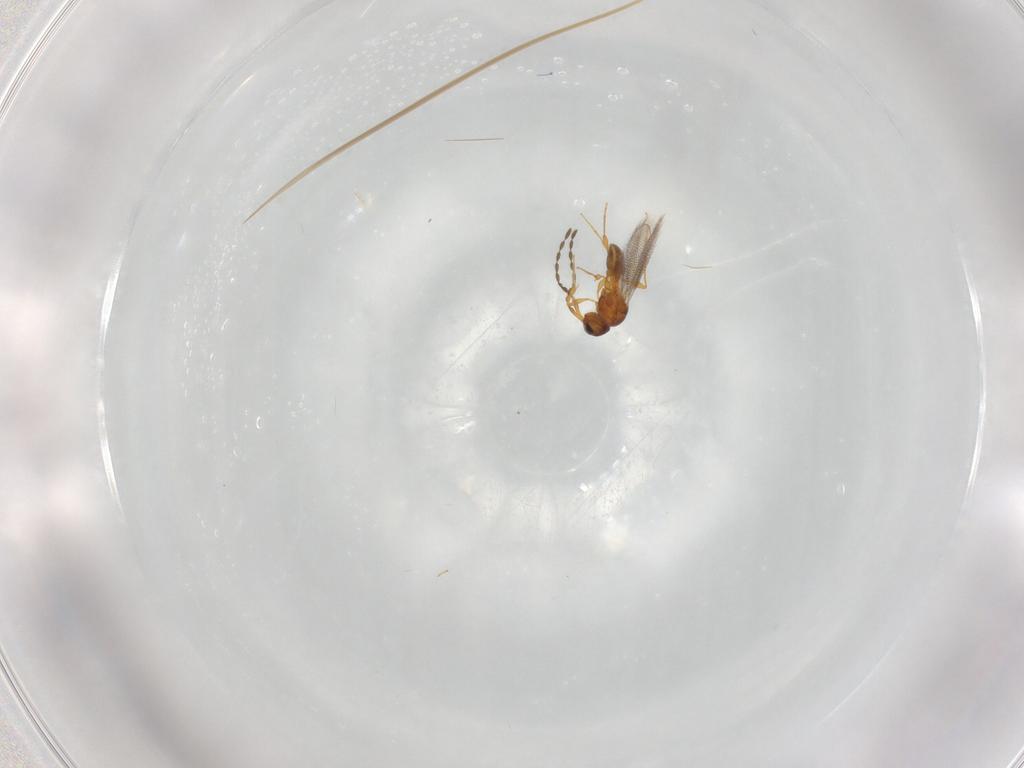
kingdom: Animalia
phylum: Arthropoda
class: Insecta
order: Hymenoptera
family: Platygastridae
